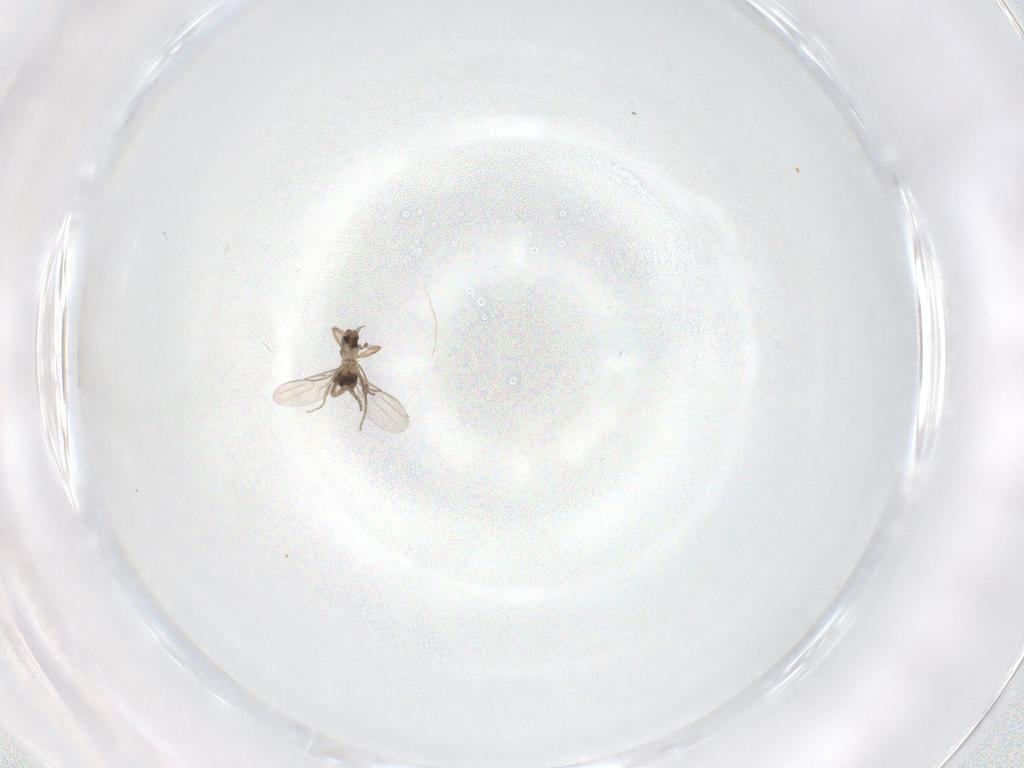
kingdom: Animalia
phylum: Arthropoda
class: Insecta
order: Diptera
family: Phoridae
